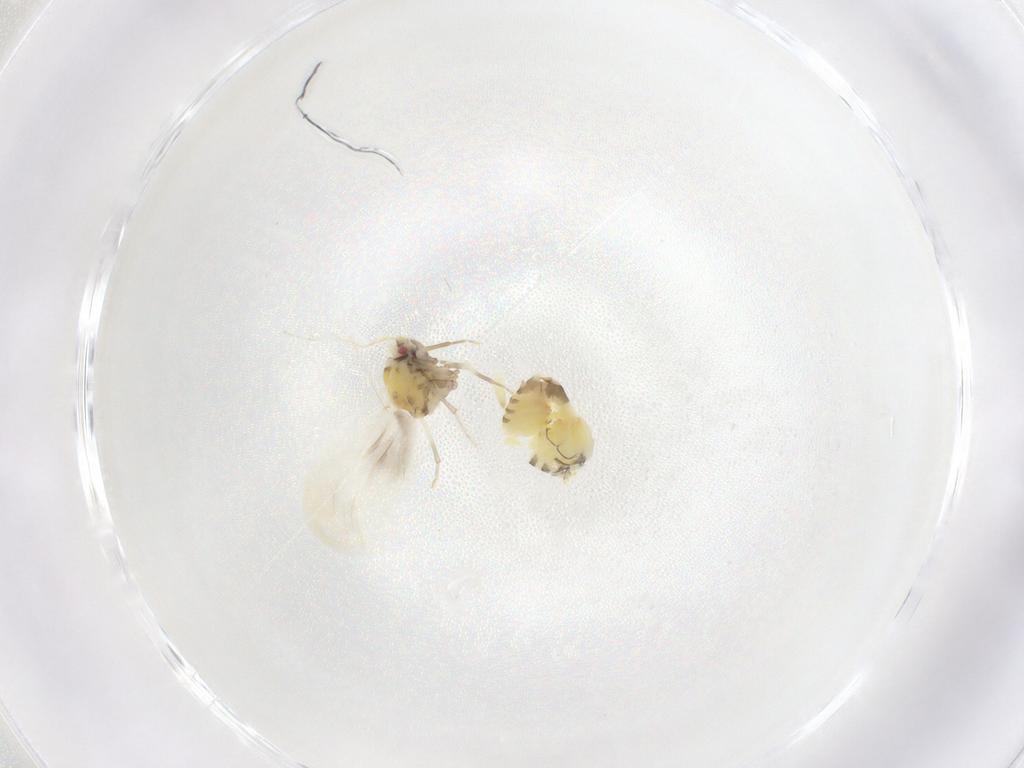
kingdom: Animalia
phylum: Arthropoda
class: Insecta
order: Hemiptera
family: Aleyrodidae
